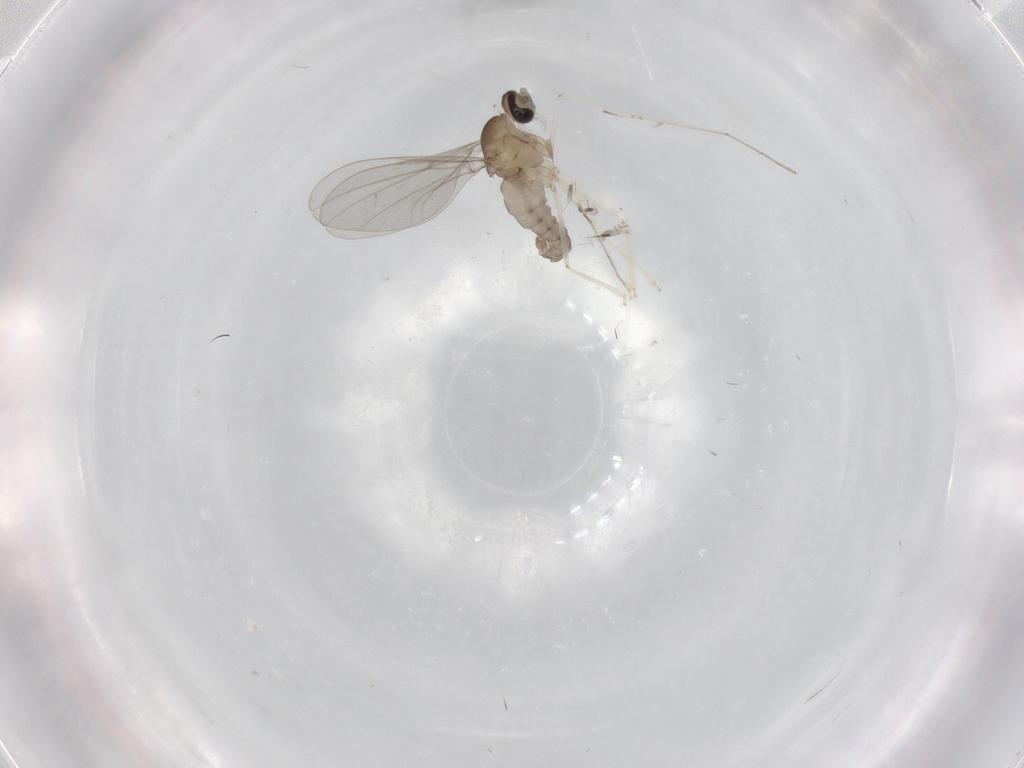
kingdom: Animalia
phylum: Arthropoda
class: Insecta
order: Diptera
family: Cecidomyiidae
